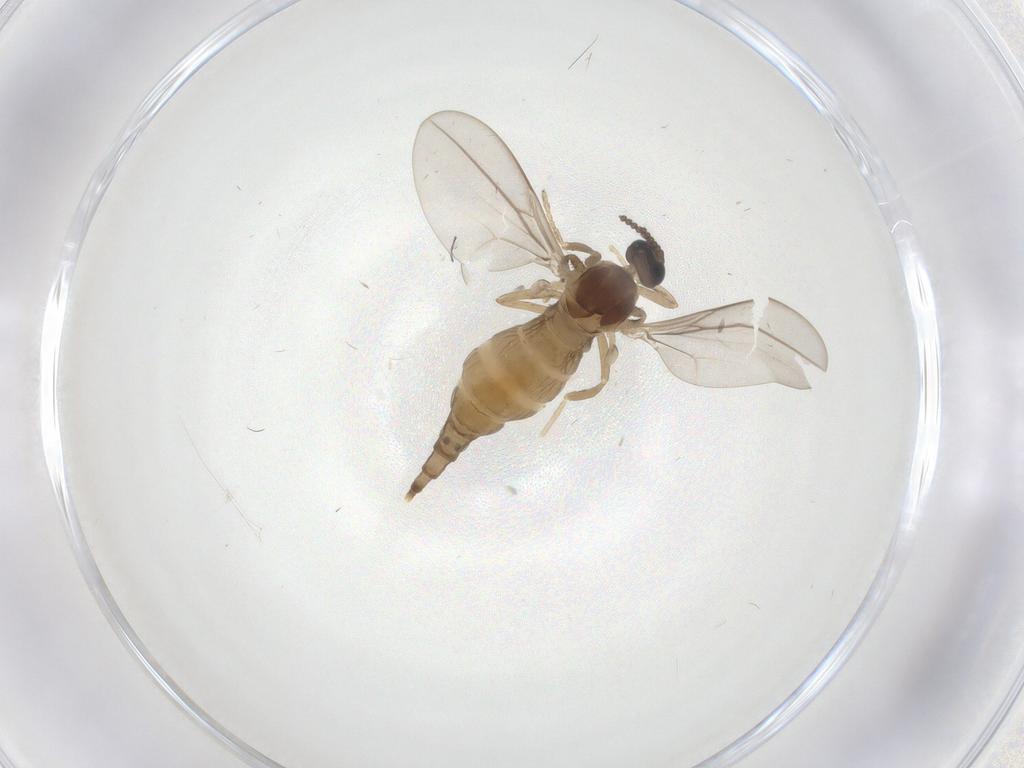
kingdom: Animalia
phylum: Arthropoda
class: Insecta
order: Diptera
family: Cecidomyiidae
